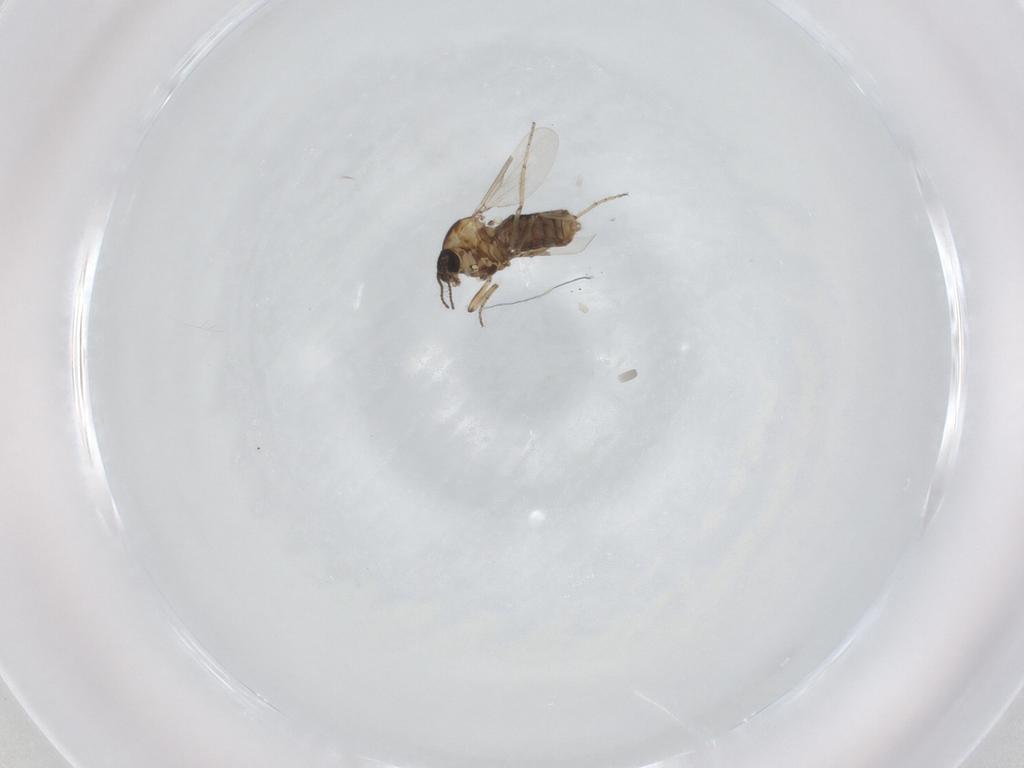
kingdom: Animalia
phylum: Arthropoda
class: Insecta
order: Diptera
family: Ceratopogonidae
